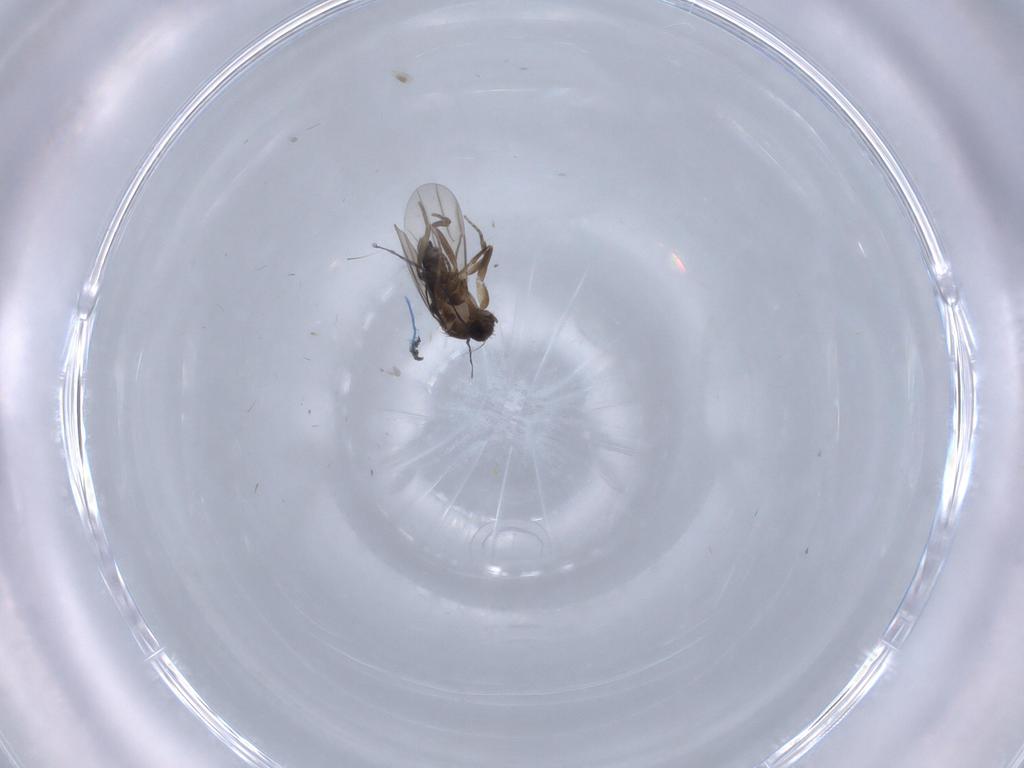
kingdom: Animalia
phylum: Arthropoda
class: Insecta
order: Diptera
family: Phoridae
